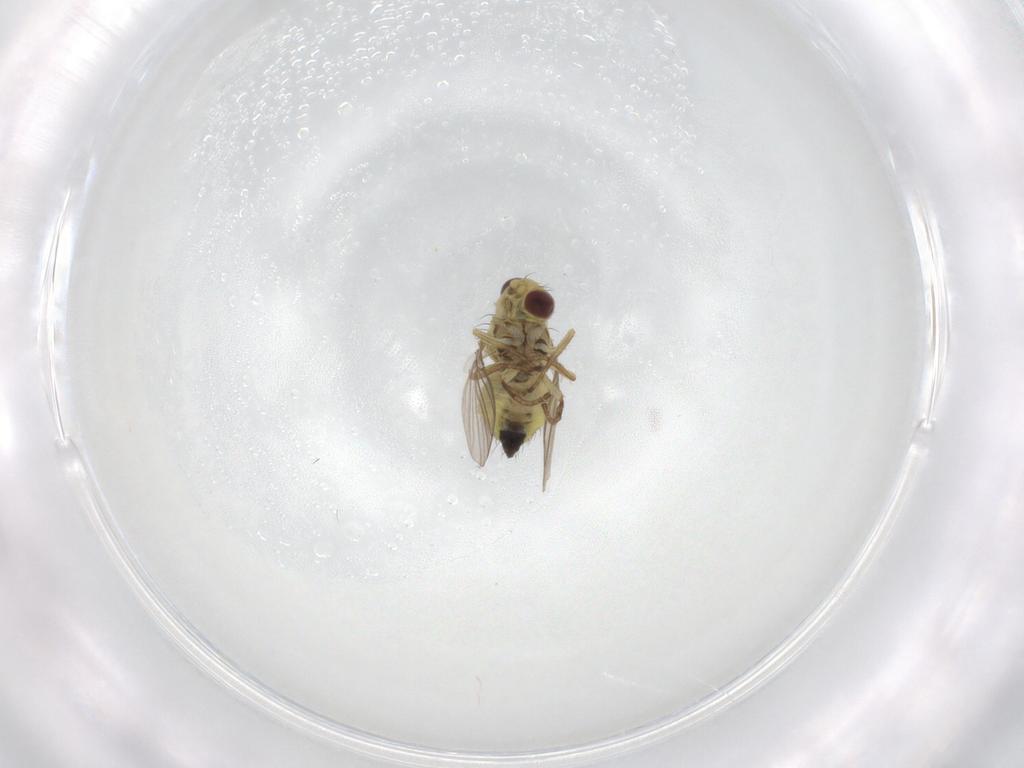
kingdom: Animalia
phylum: Arthropoda
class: Insecta
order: Diptera
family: Agromyzidae
